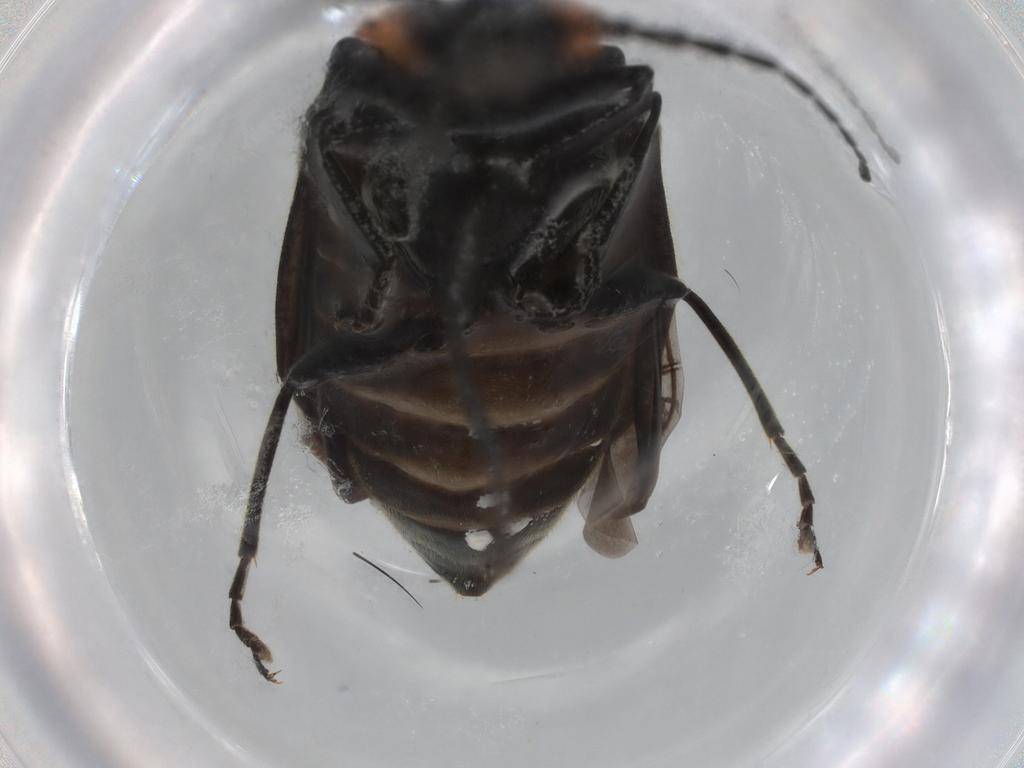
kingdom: Animalia
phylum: Arthropoda
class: Insecta
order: Coleoptera
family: Cantharidae
